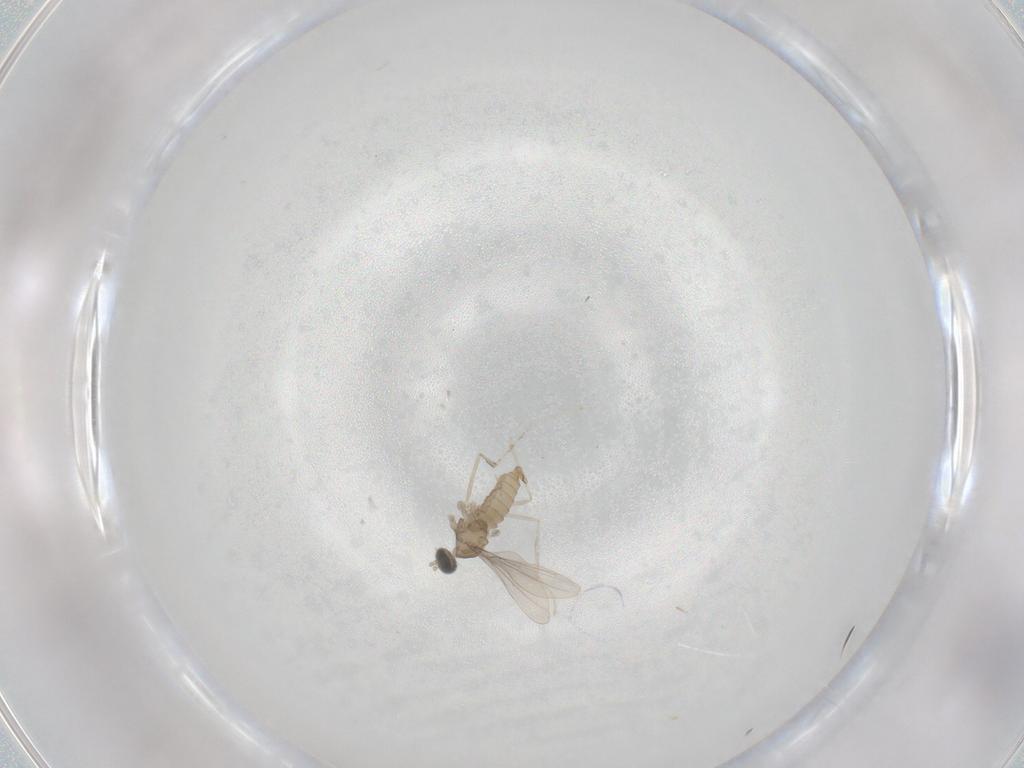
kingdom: Animalia
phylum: Arthropoda
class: Insecta
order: Diptera
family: Cecidomyiidae
